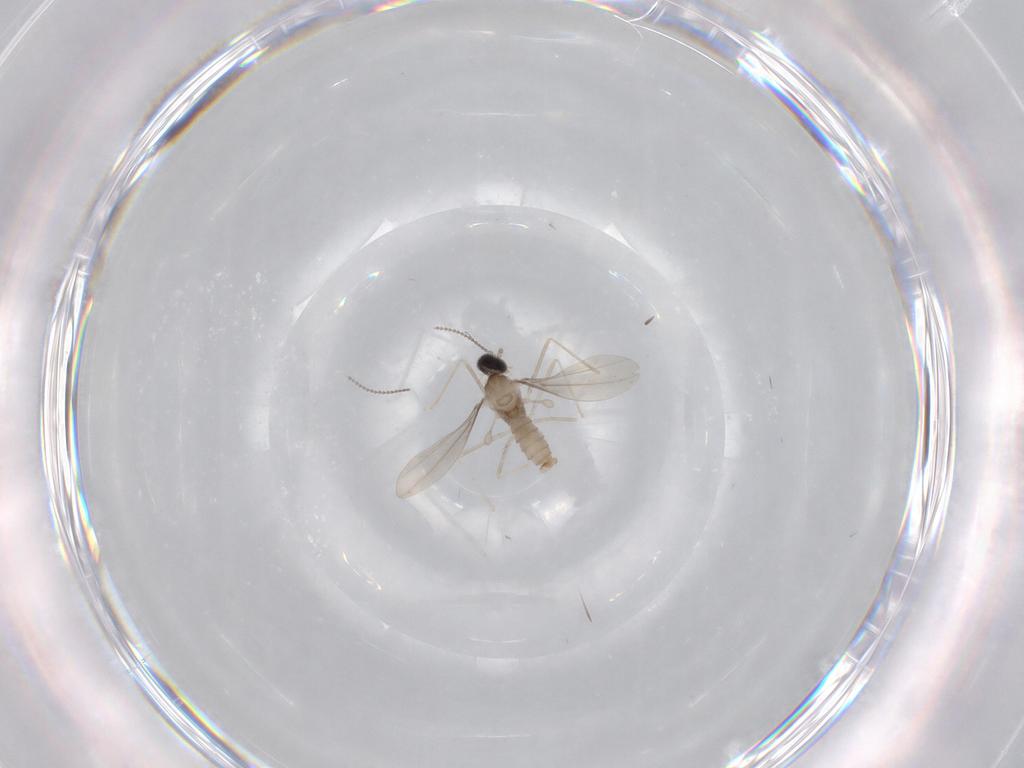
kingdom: Animalia
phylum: Arthropoda
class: Insecta
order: Diptera
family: Cecidomyiidae
